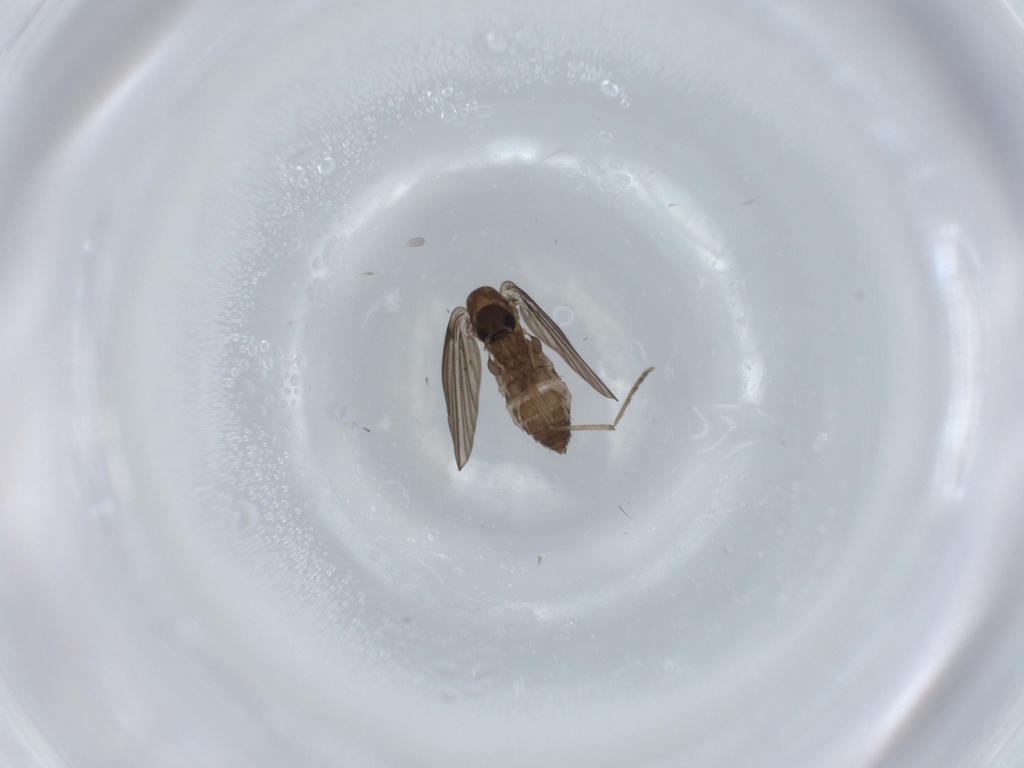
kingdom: Animalia
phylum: Arthropoda
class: Insecta
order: Diptera
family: Psychodidae
